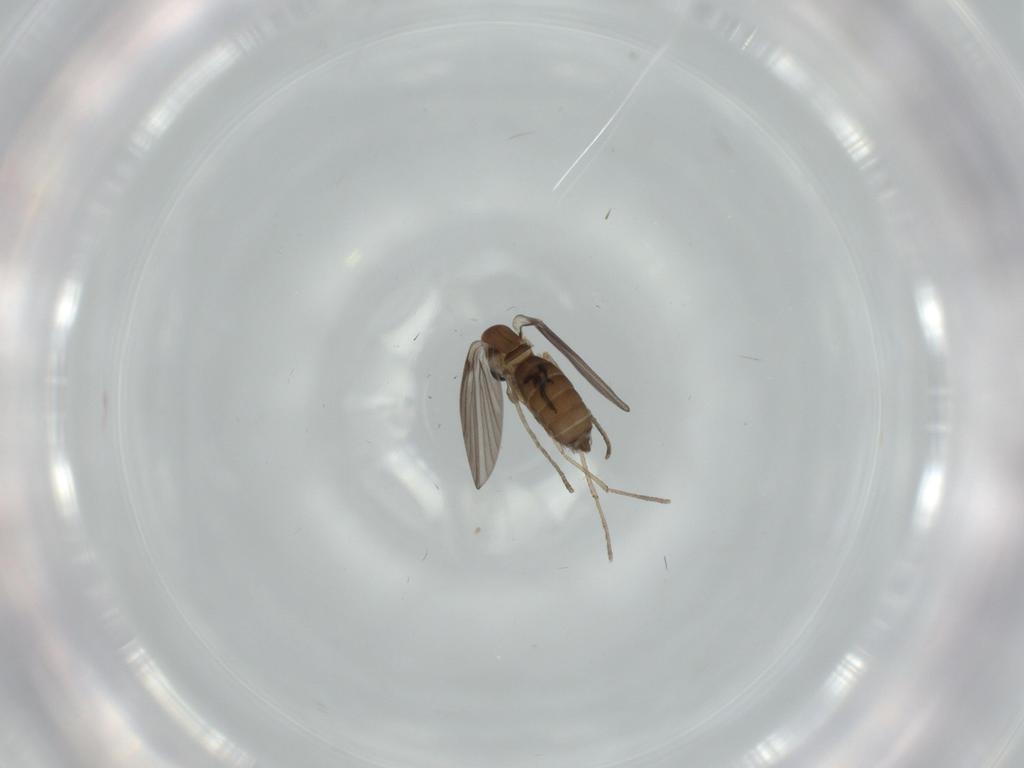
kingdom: Animalia
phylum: Arthropoda
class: Insecta
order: Diptera
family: Psychodidae
